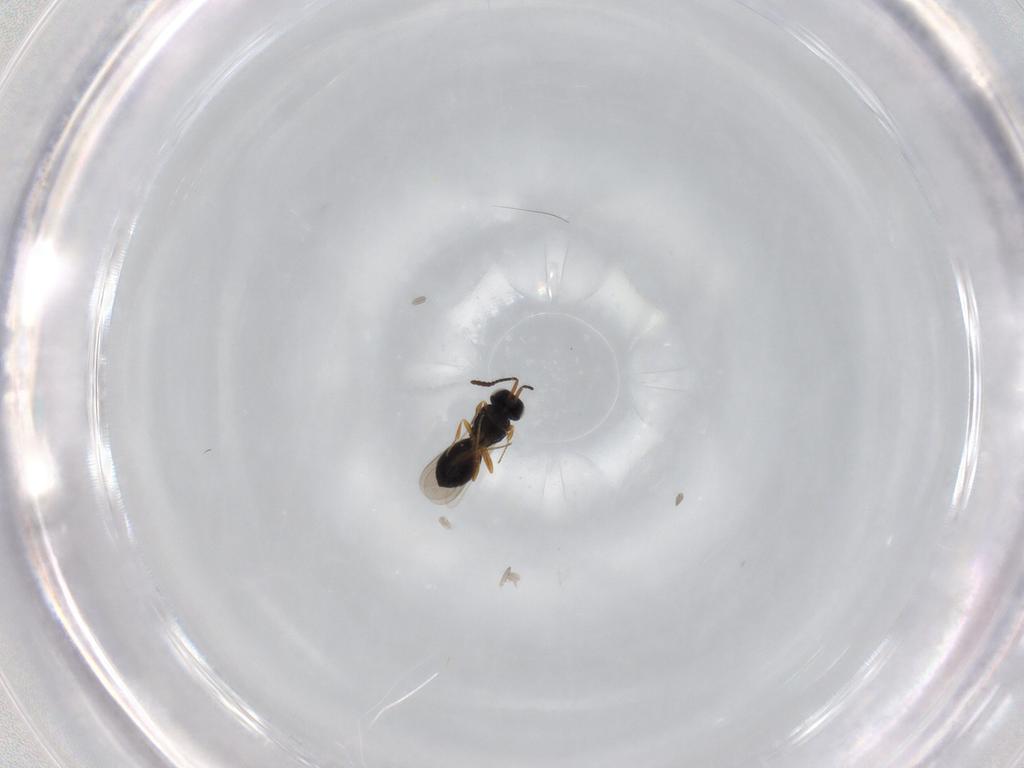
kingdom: Animalia
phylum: Arthropoda
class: Insecta
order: Hymenoptera
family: Scelionidae
